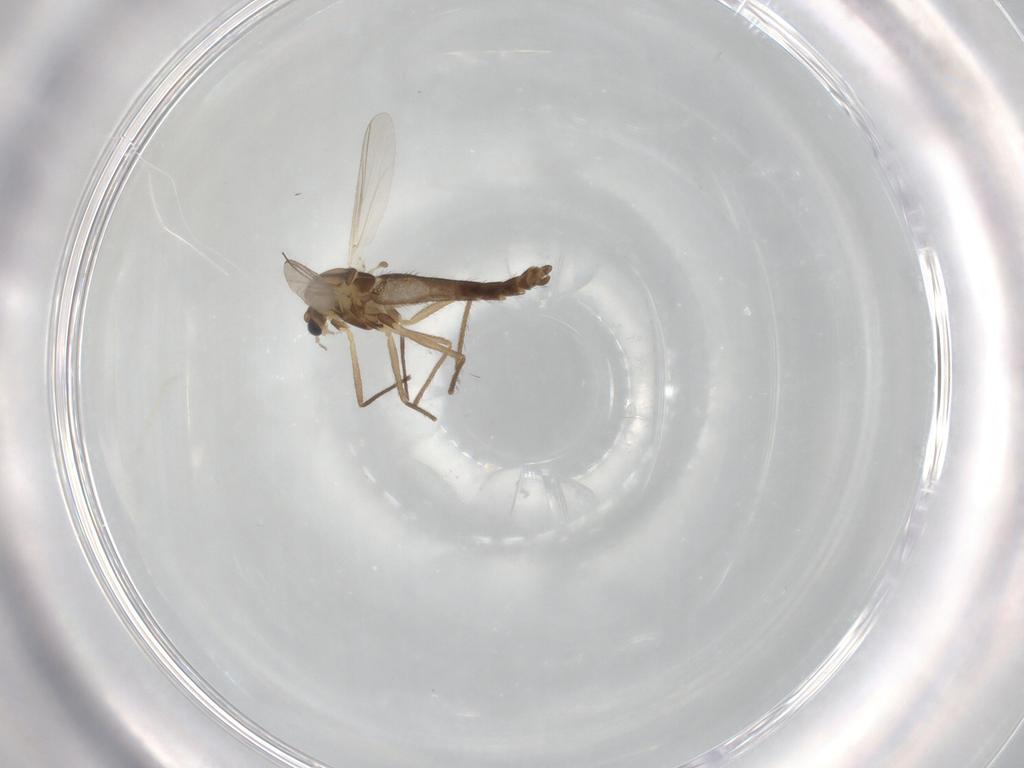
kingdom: Animalia
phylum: Arthropoda
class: Insecta
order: Diptera
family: Chironomidae
